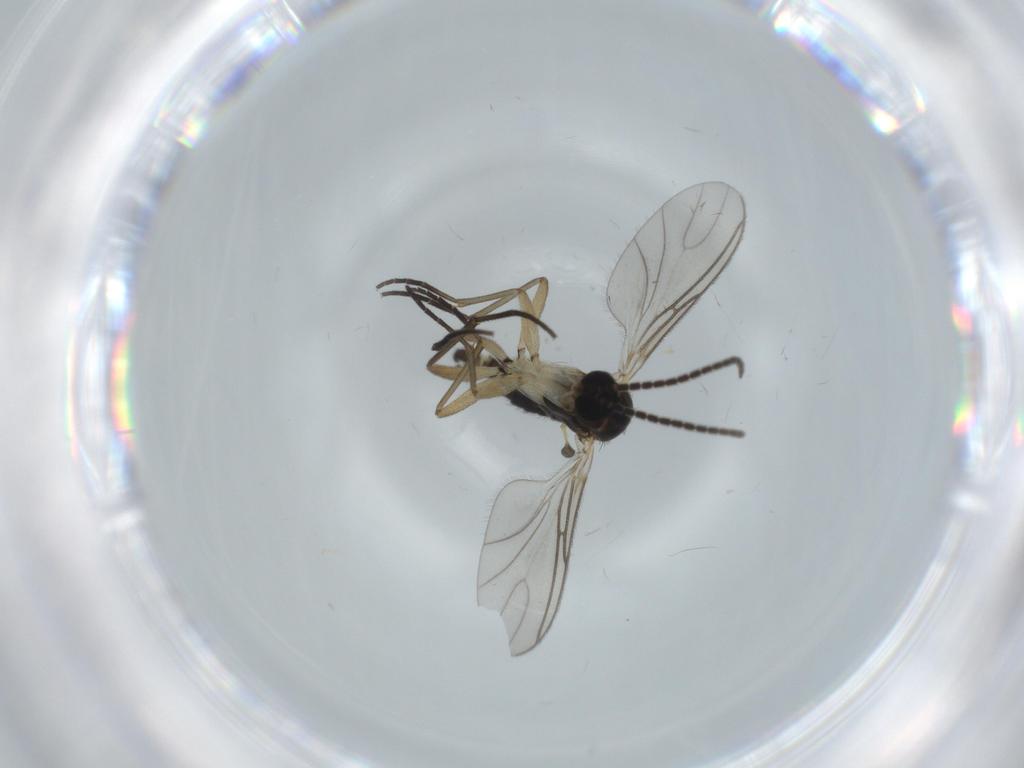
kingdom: Animalia
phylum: Arthropoda
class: Insecta
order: Diptera
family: Sciaridae
